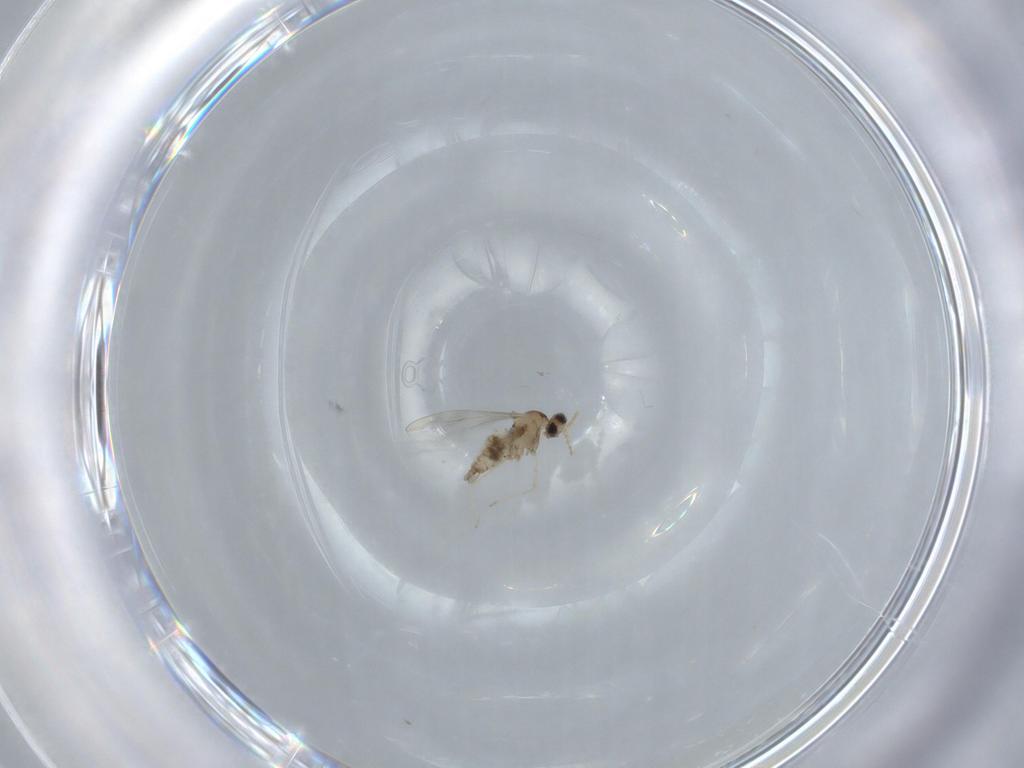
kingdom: Animalia
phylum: Arthropoda
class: Insecta
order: Diptera
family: Cecidomyiidae
